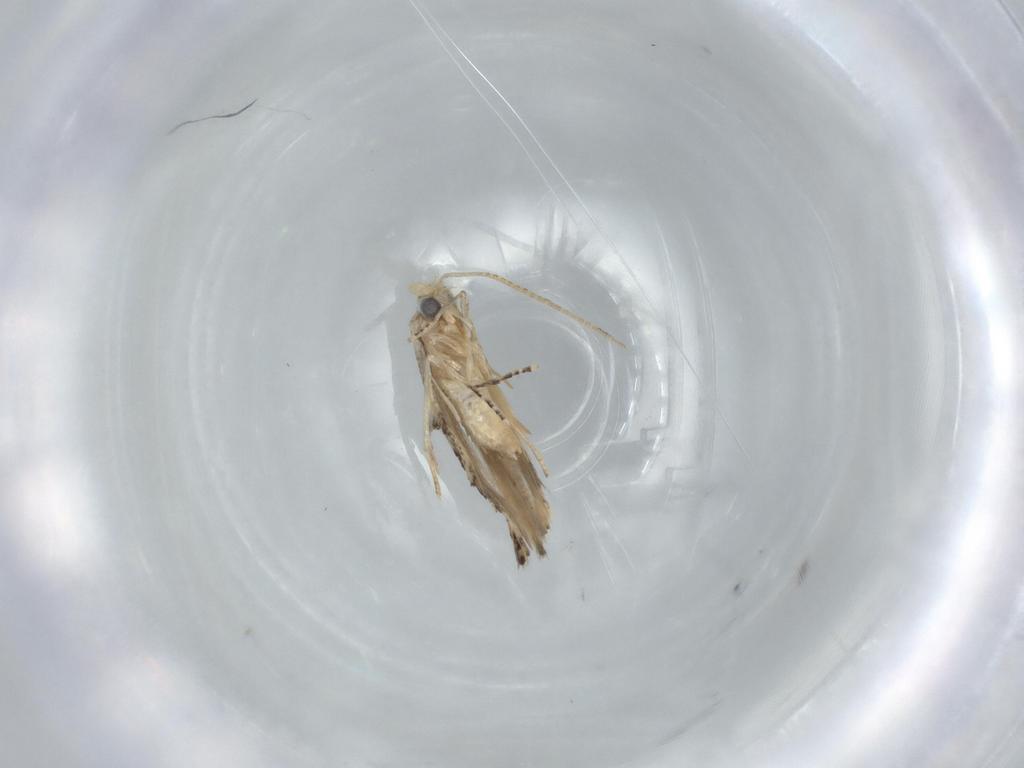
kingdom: Animalia
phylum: Arthropoda
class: Insecta
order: Lepidoptera
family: Bucculatricidae
